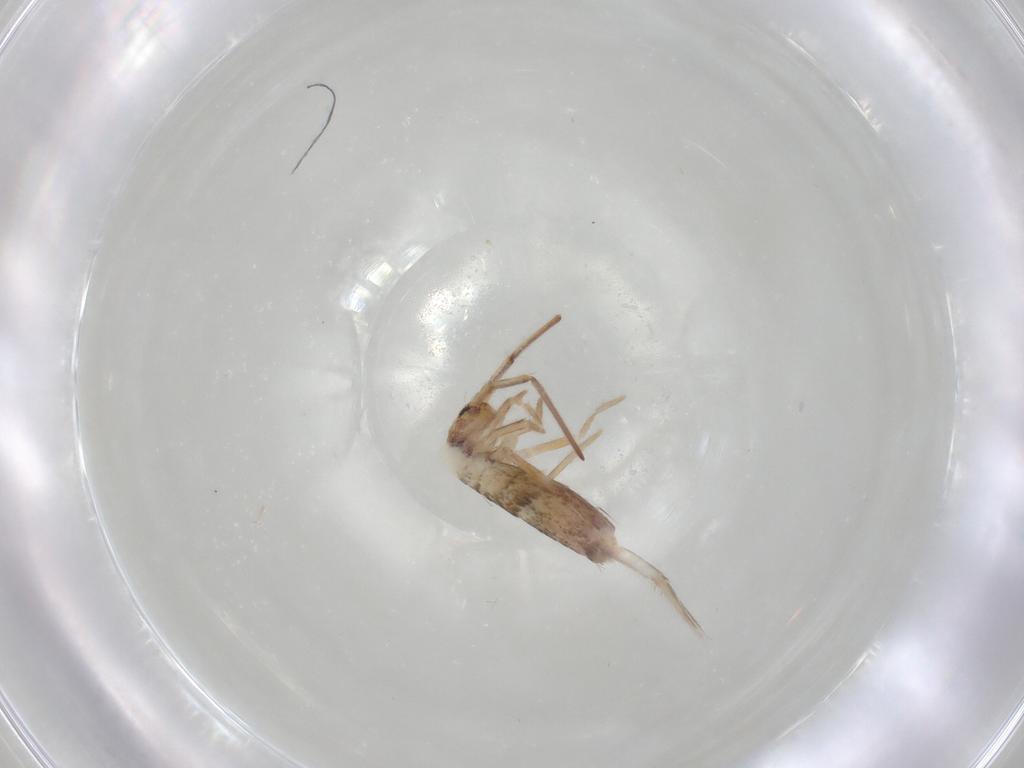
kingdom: Animalia
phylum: Arthropoda
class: Collembola
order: Entomobryomorpha
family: Entomobryidae
